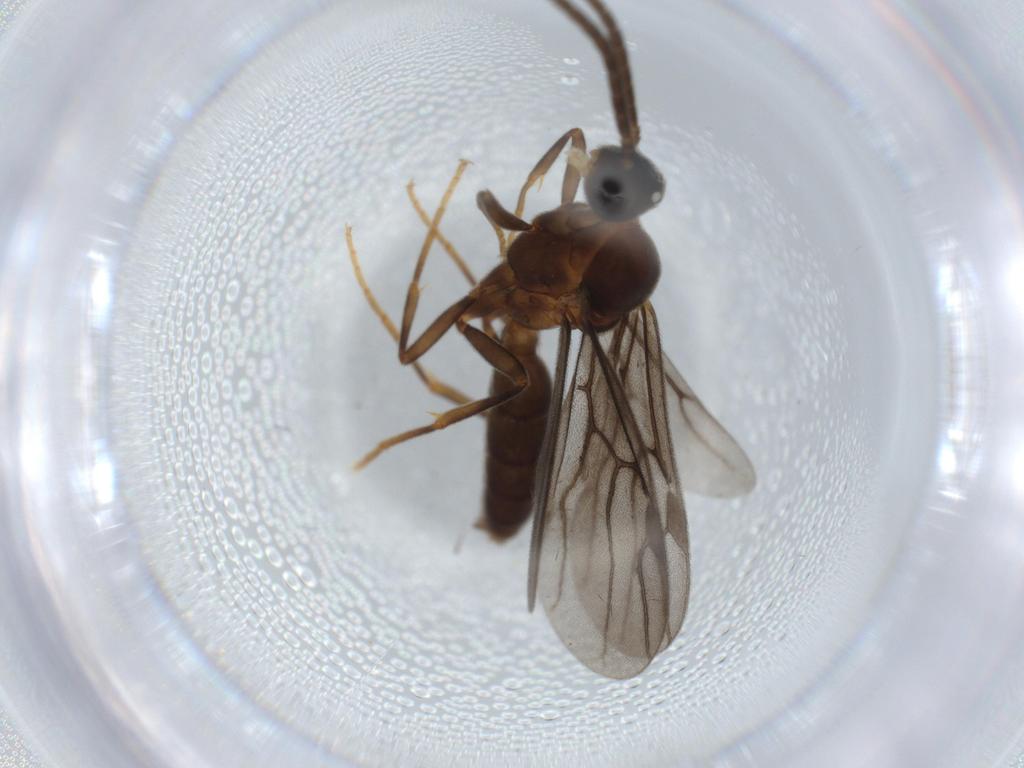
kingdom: Animalia
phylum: Arthropoda
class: Insecta
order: Hymenoptera
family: Formicidae
